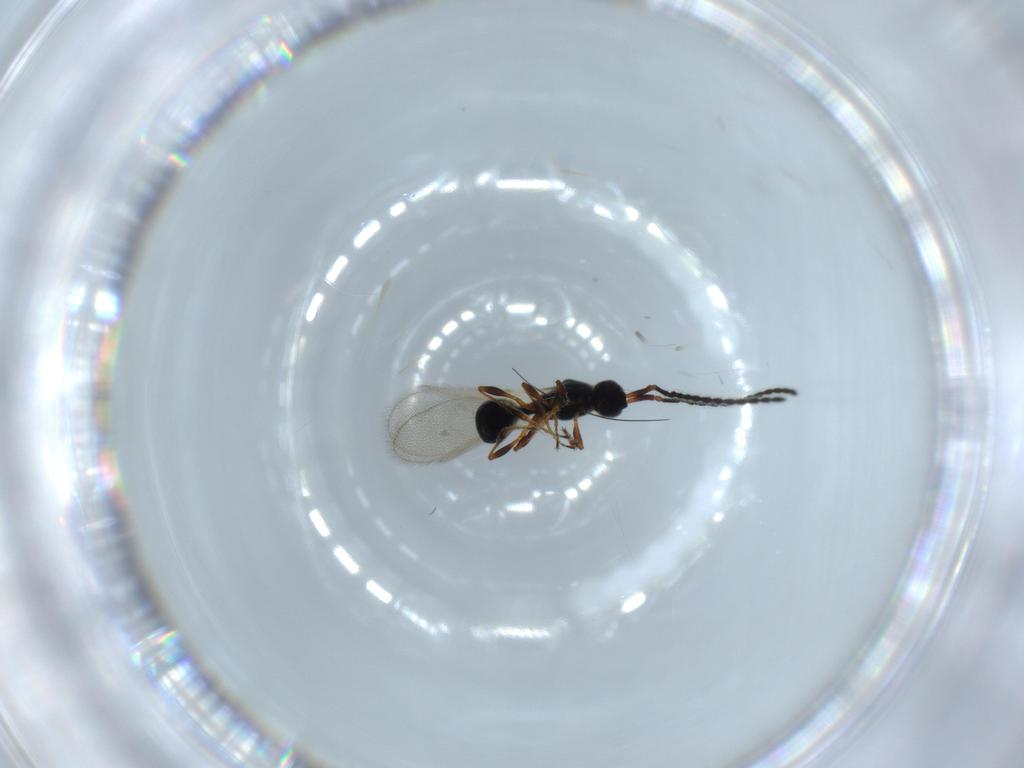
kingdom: Animalia
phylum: Arthropoda
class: Insecta
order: Hymenoptera
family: Diapriidae
